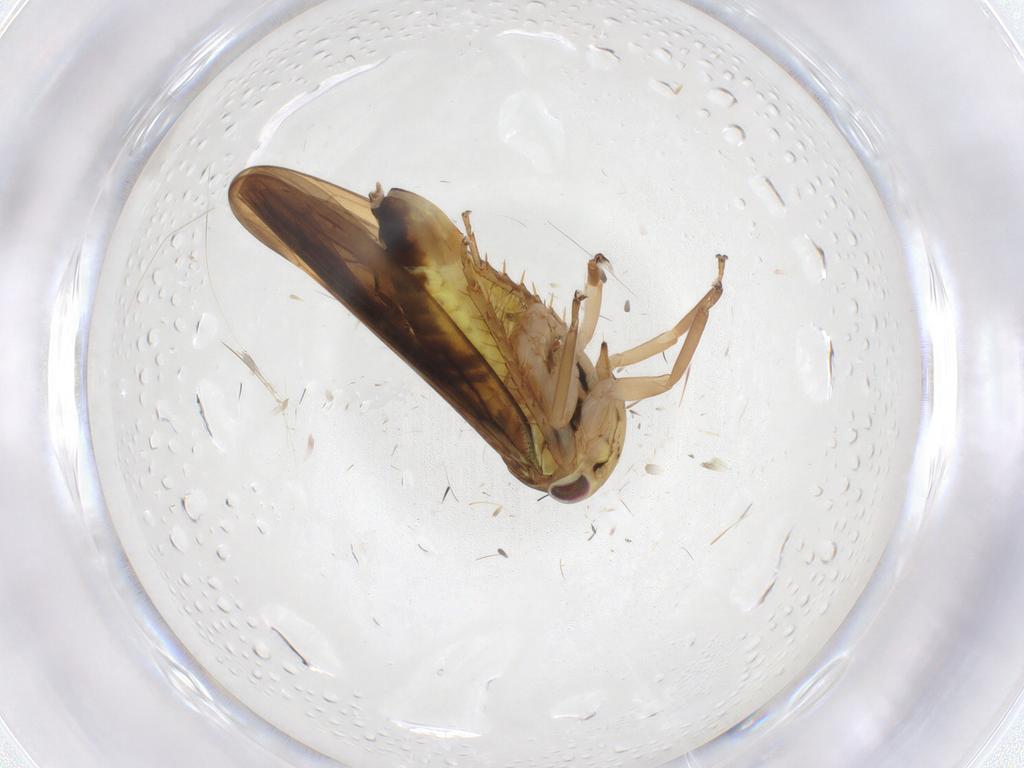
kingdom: Animalia
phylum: Arthropoda
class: Insecta
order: Hemiptera
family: Cicadellidae
